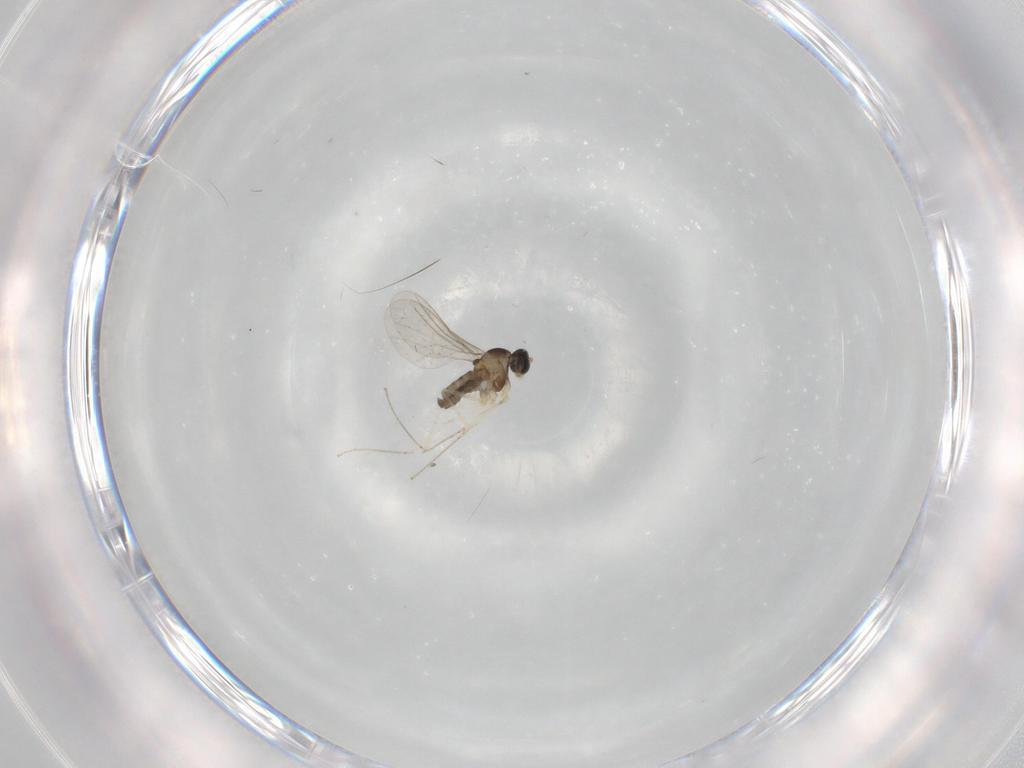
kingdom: Animalia
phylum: Arthropoda
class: Insecta
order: Diptera
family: Cecidomyiidae
